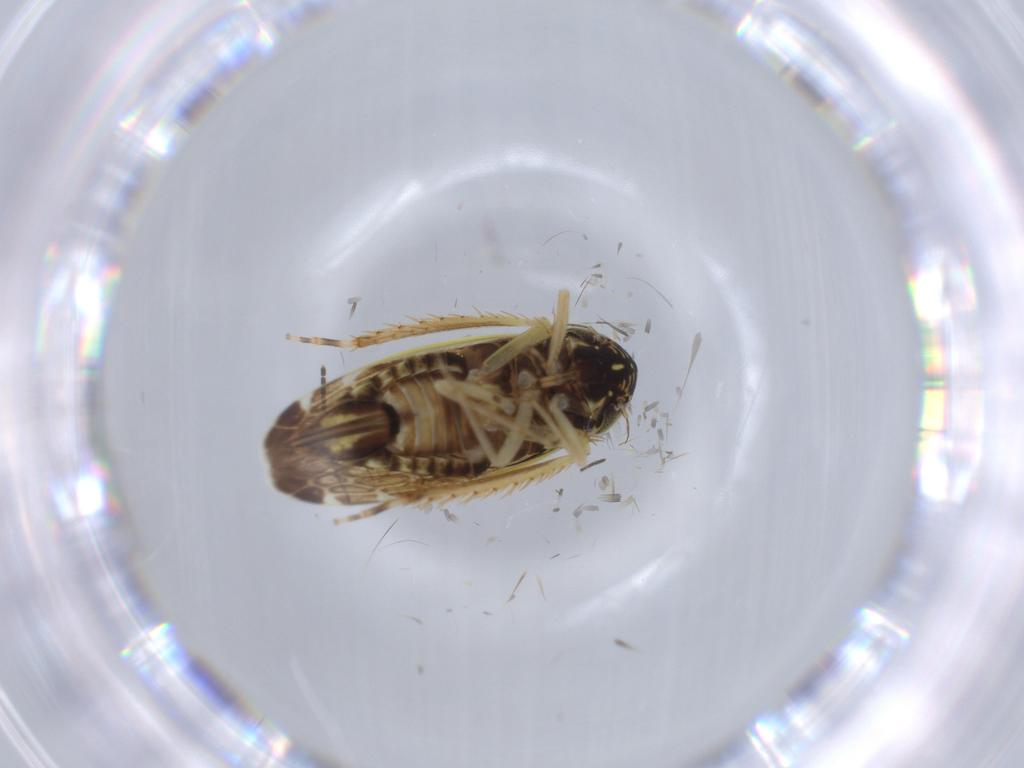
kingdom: Animalia
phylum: Arthropoda
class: Insecta
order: Hemiptera
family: Cicadellidae
